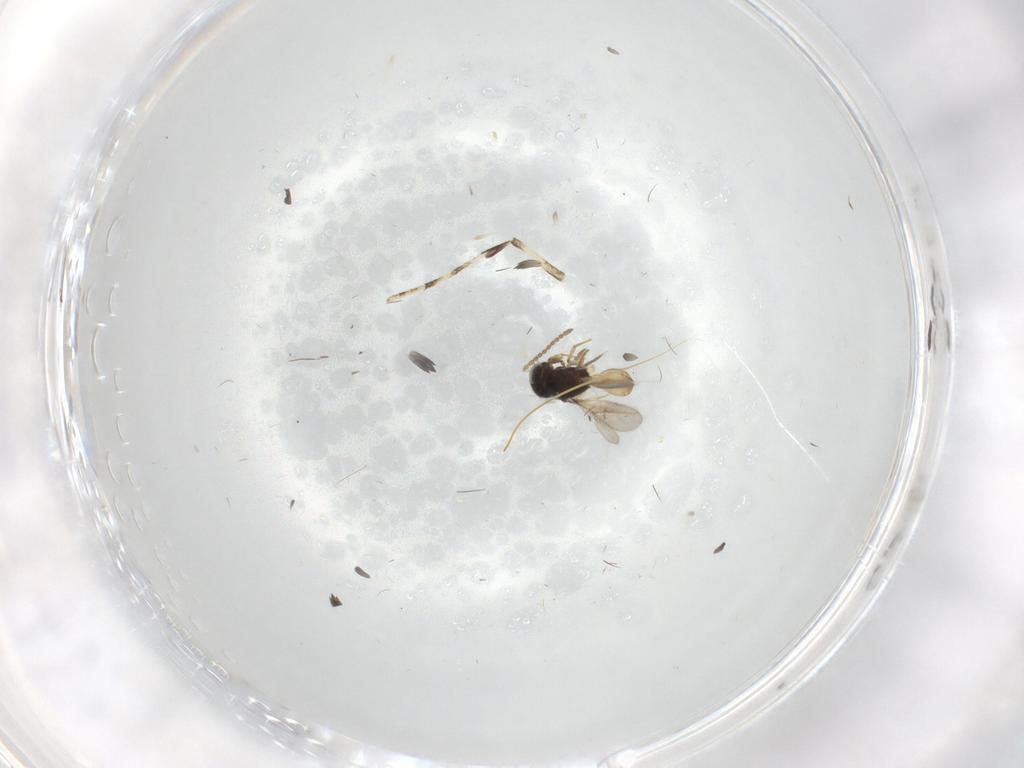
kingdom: Animalia
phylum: Arthropoda
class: Insecta
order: Hymenoptera
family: Scelionidae
